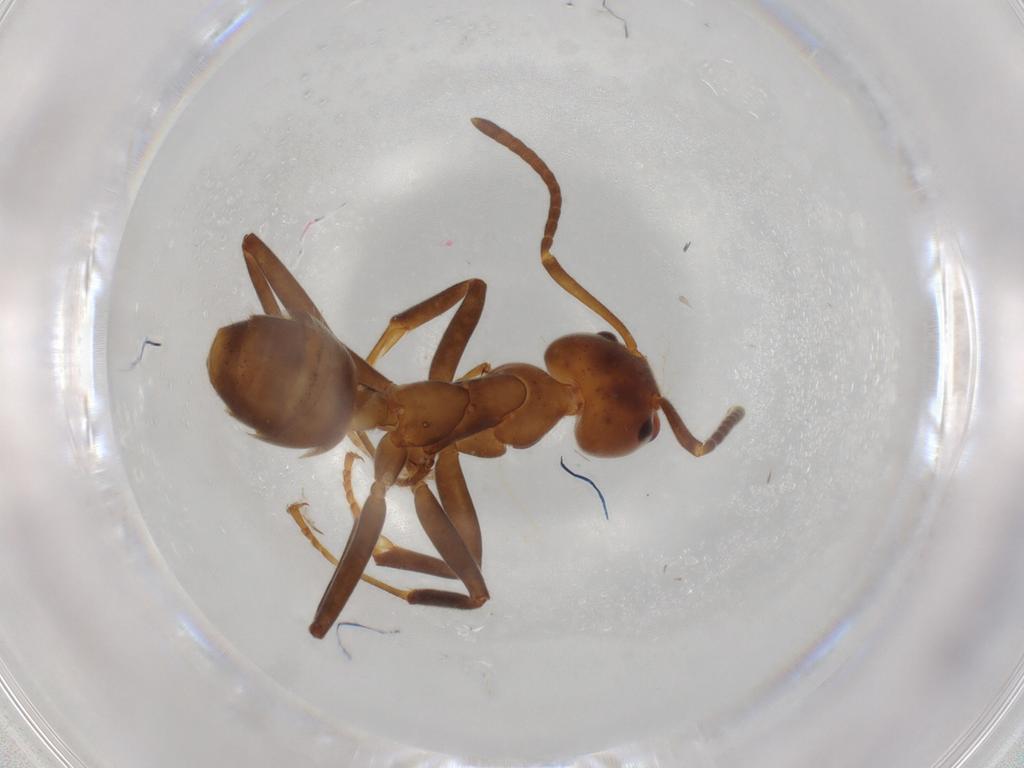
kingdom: Animalia
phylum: Arthropoda
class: Insecta
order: Hymenoptera
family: Formicidae
